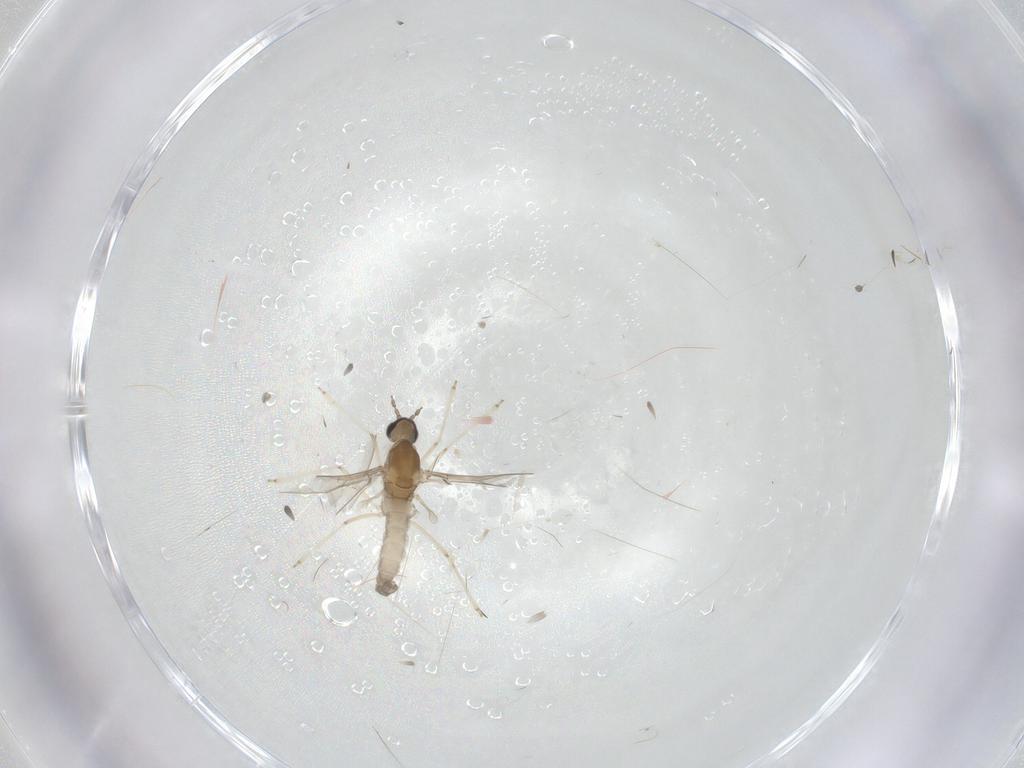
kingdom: Animalia
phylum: Arthropoda
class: Insecta
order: Diptera
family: Cecidomyiidae
